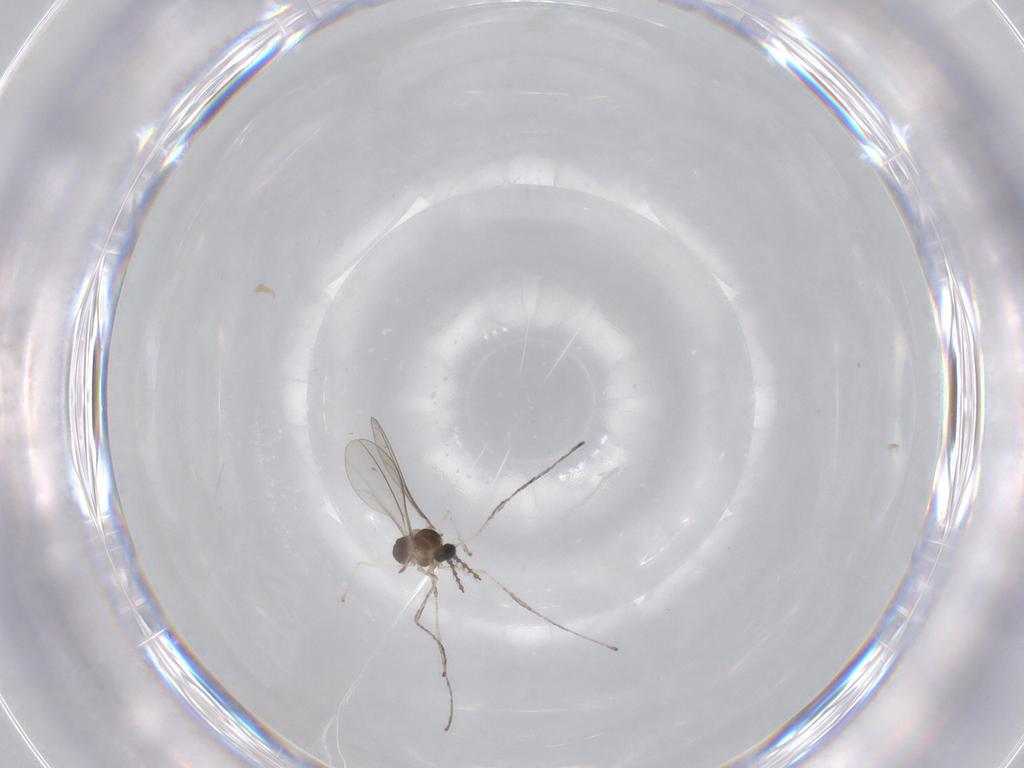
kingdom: Animalia
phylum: Arthropoda
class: Insecta
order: Diptera
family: Cecidomyiidae
